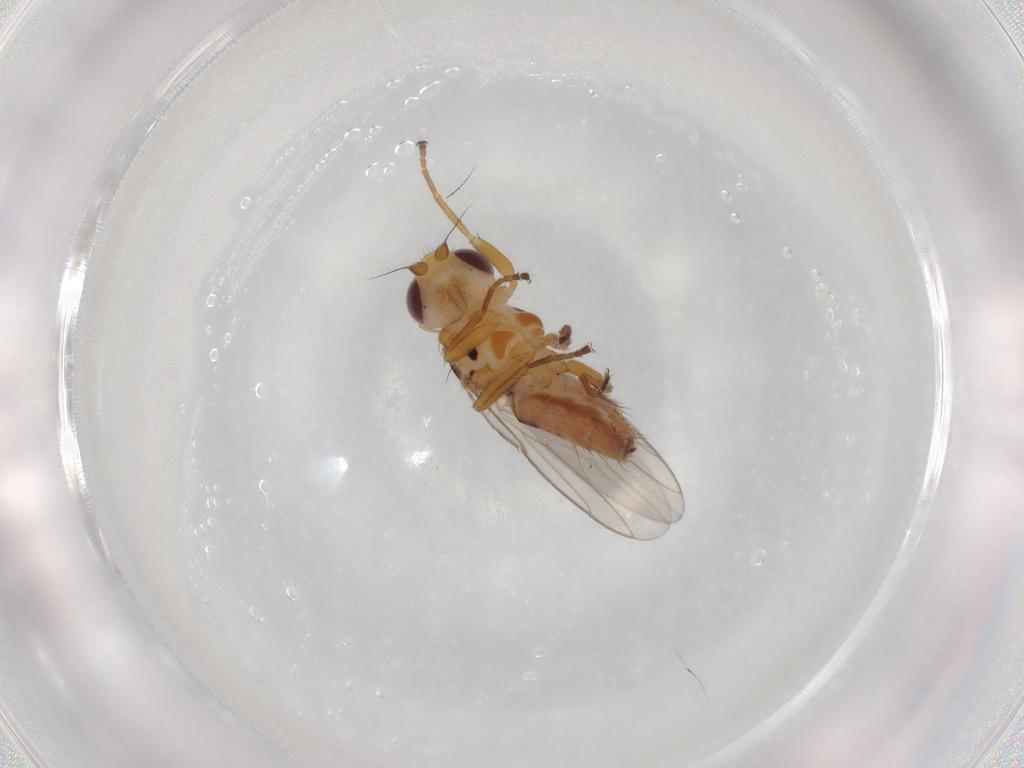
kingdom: Animalia
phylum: Arthropoda
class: Insecta
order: Diptera
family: Chloropidae
